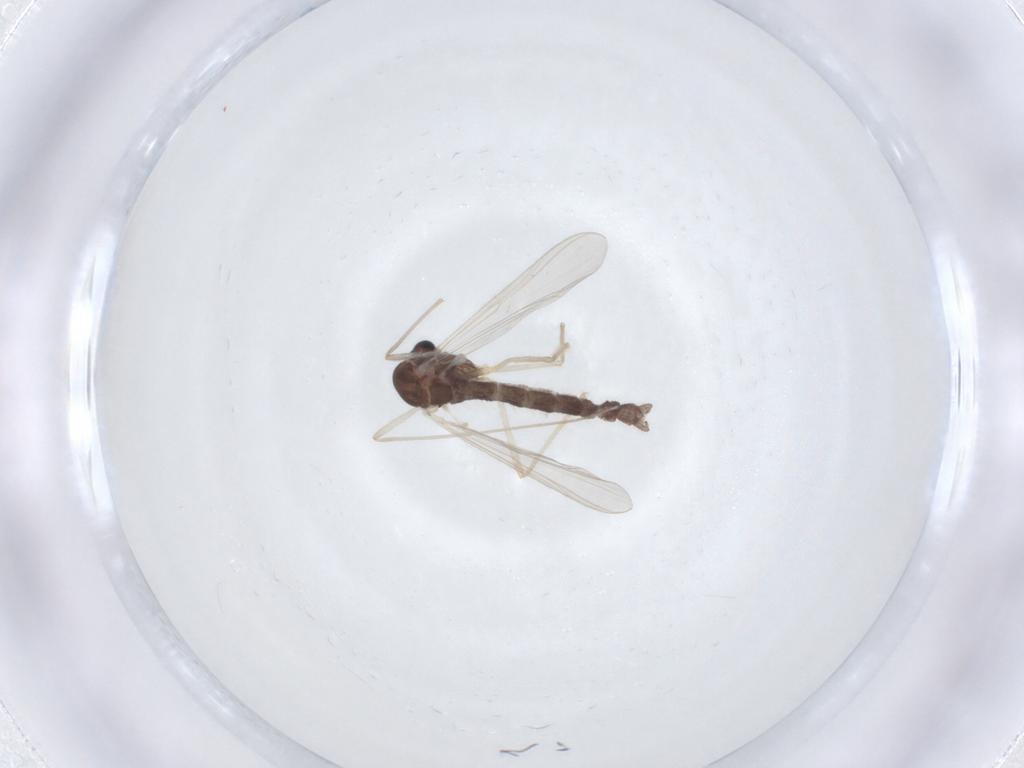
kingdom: Animalia
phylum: Arthropoda
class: Insecta
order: Diptera
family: Chironomidae
